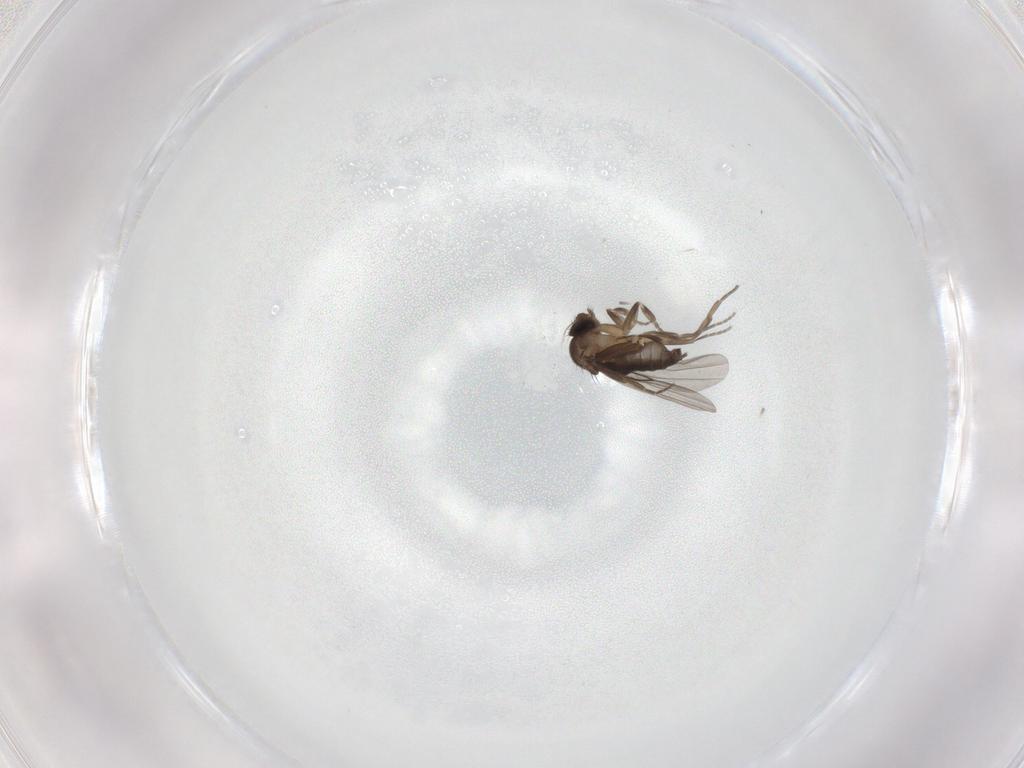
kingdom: Animalia
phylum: Arthropoda
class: Insecta
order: Diptera
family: Phoridae
